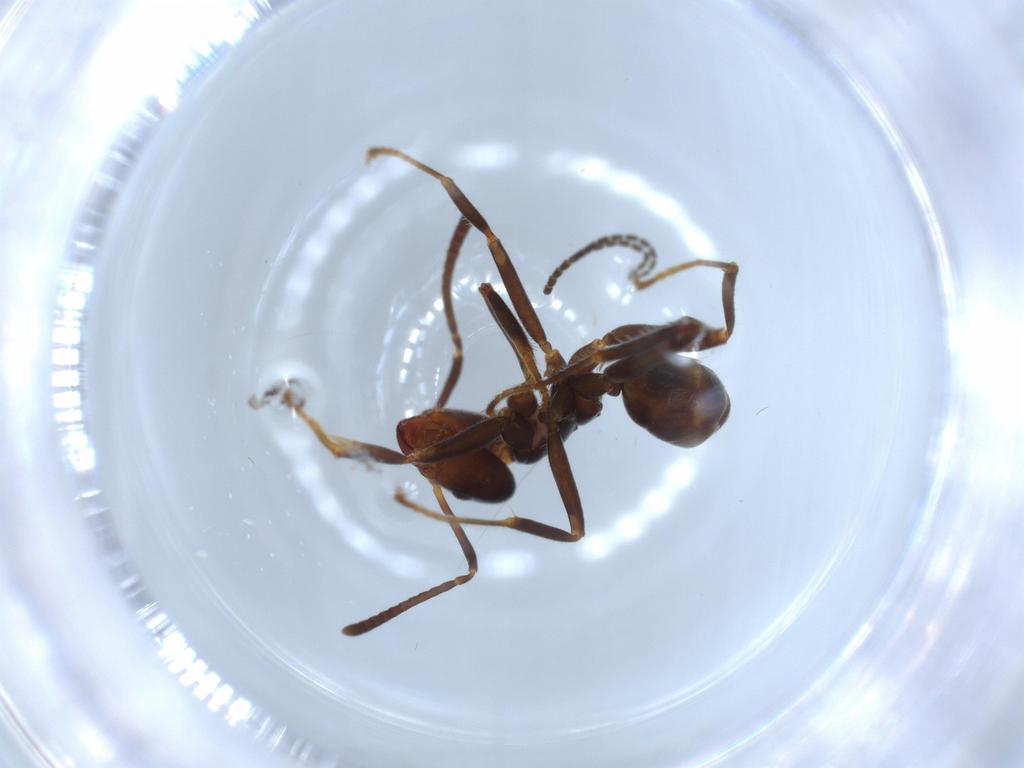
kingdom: Animalia
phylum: Arthropoda
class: Insecta
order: Hymenoptera
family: Formicidae
